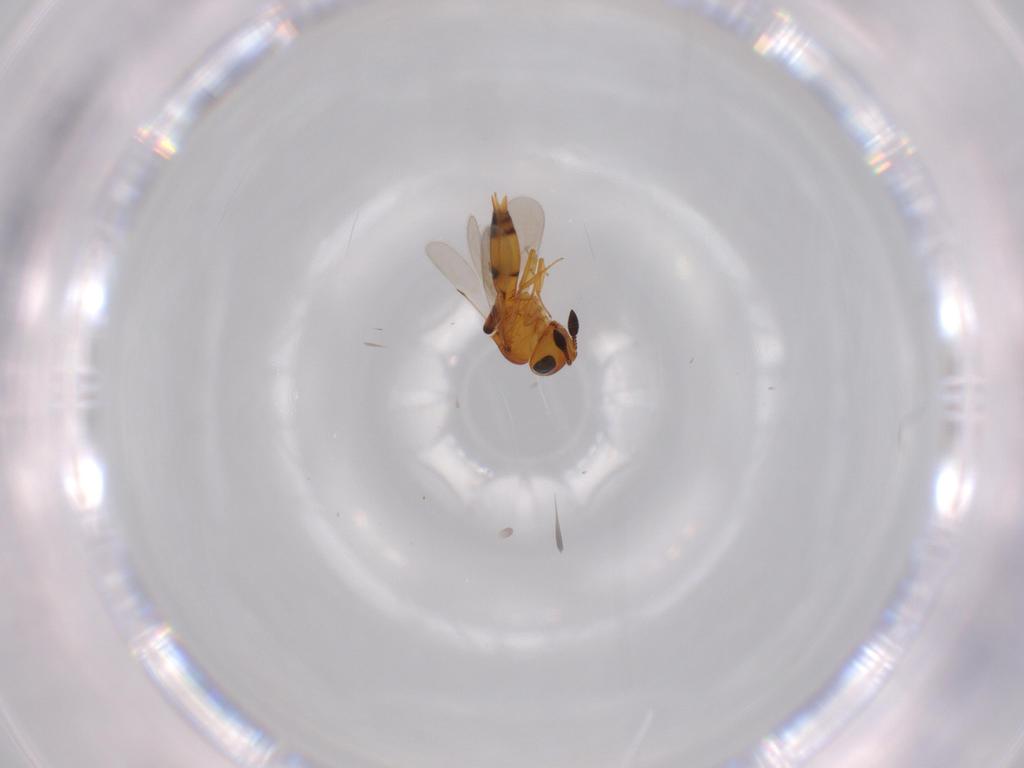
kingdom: Animalia
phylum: Arthropoda
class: Insecta
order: Hymenoptera
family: Scelionidae
